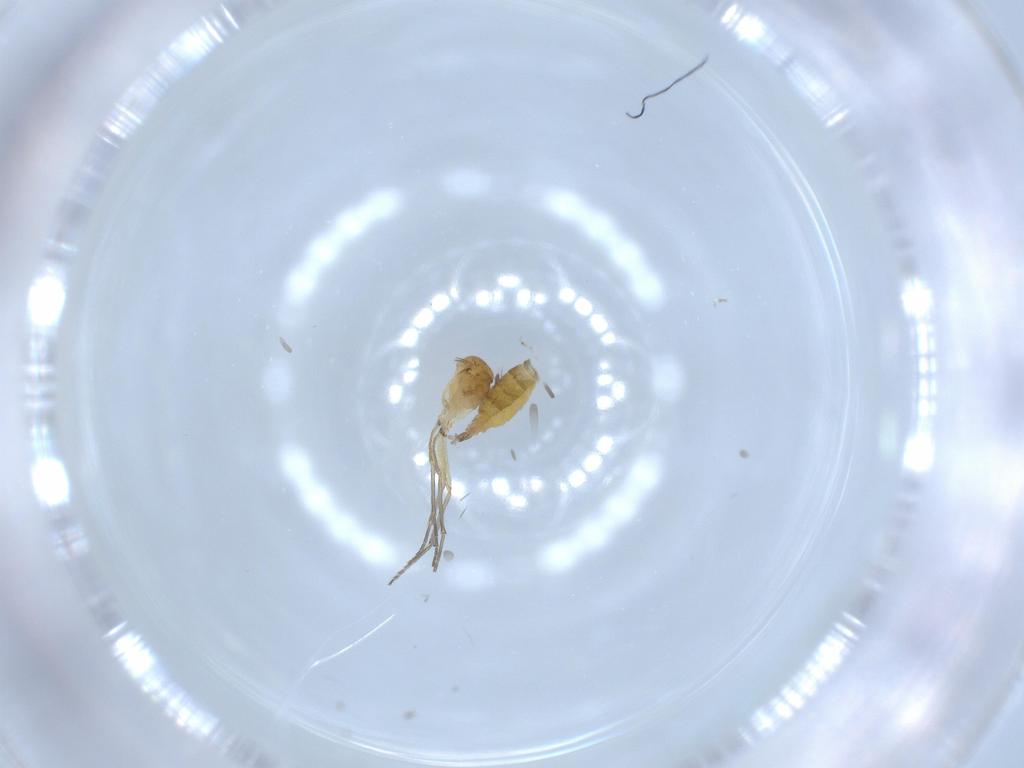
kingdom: Animalia
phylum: Arthropoda
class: Insecta
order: Diptera
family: Sciaridae
